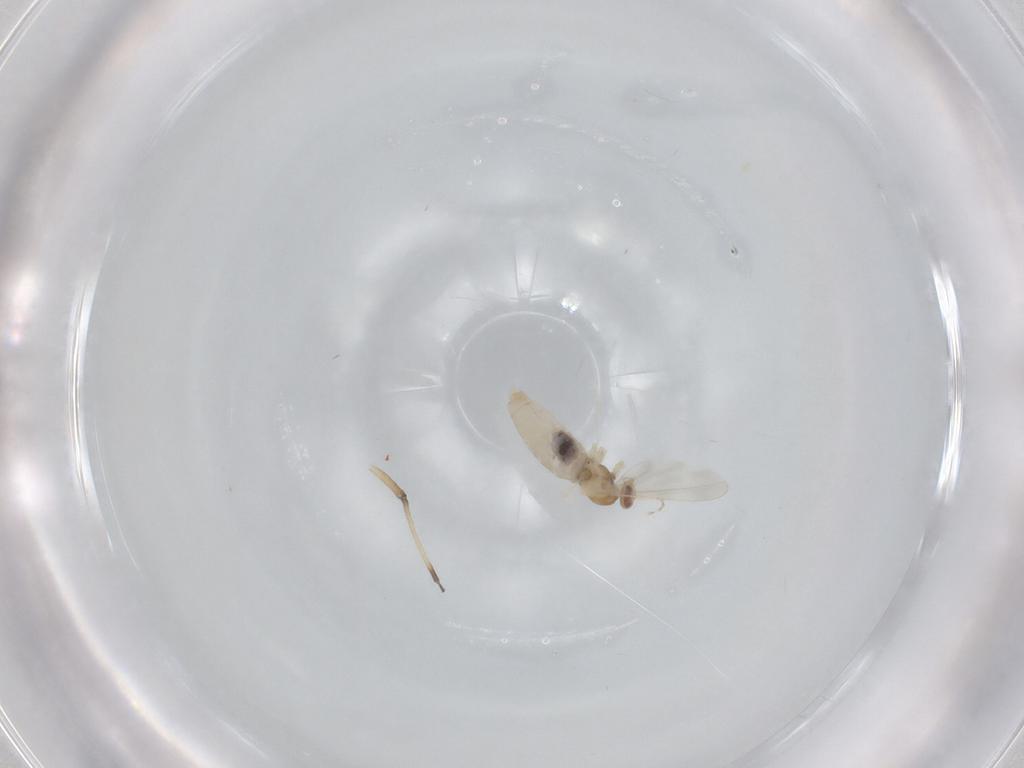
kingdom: Animalia
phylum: Arthropoda
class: Insecta
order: Diptera
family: Cecidomyiidae
